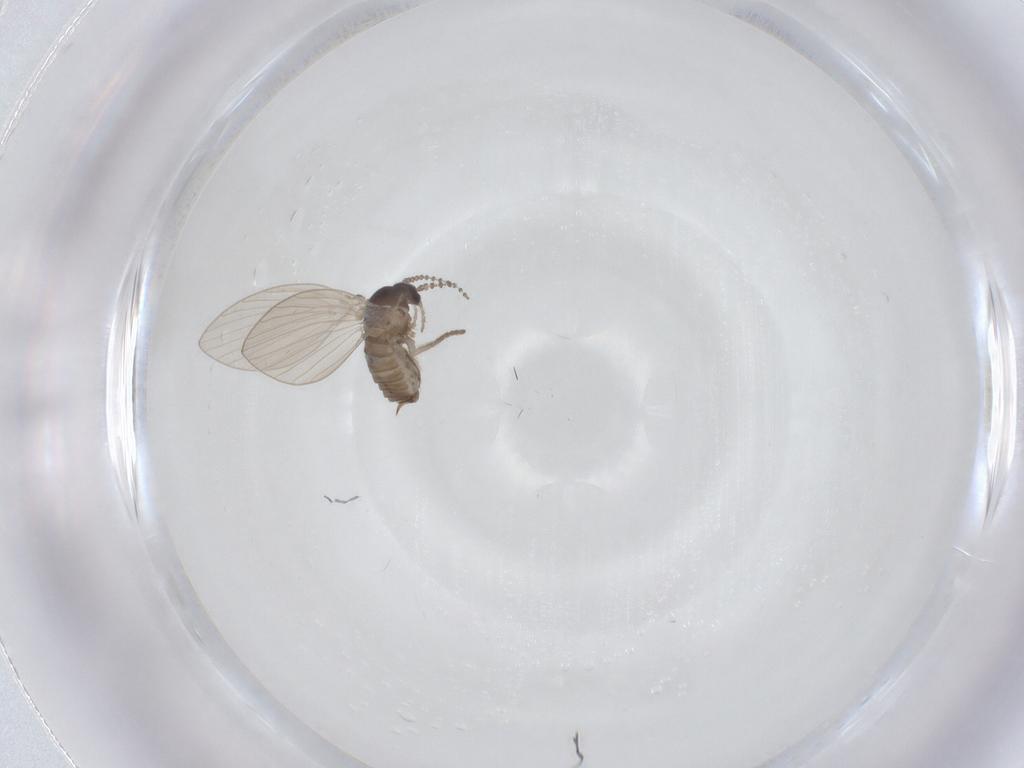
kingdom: Animalia
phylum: Arthropoda
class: Insecta
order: Diptera
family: Psychodidae
